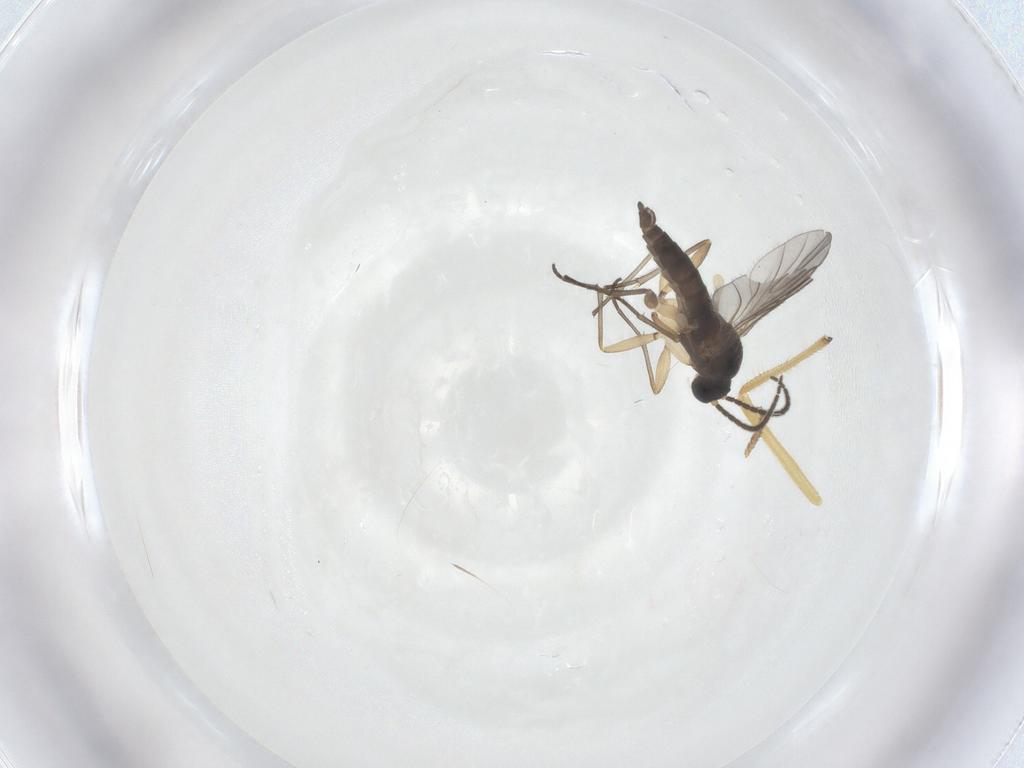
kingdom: Animalia
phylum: Arthropoda
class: Insecta
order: Diptera
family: Sciaridae
